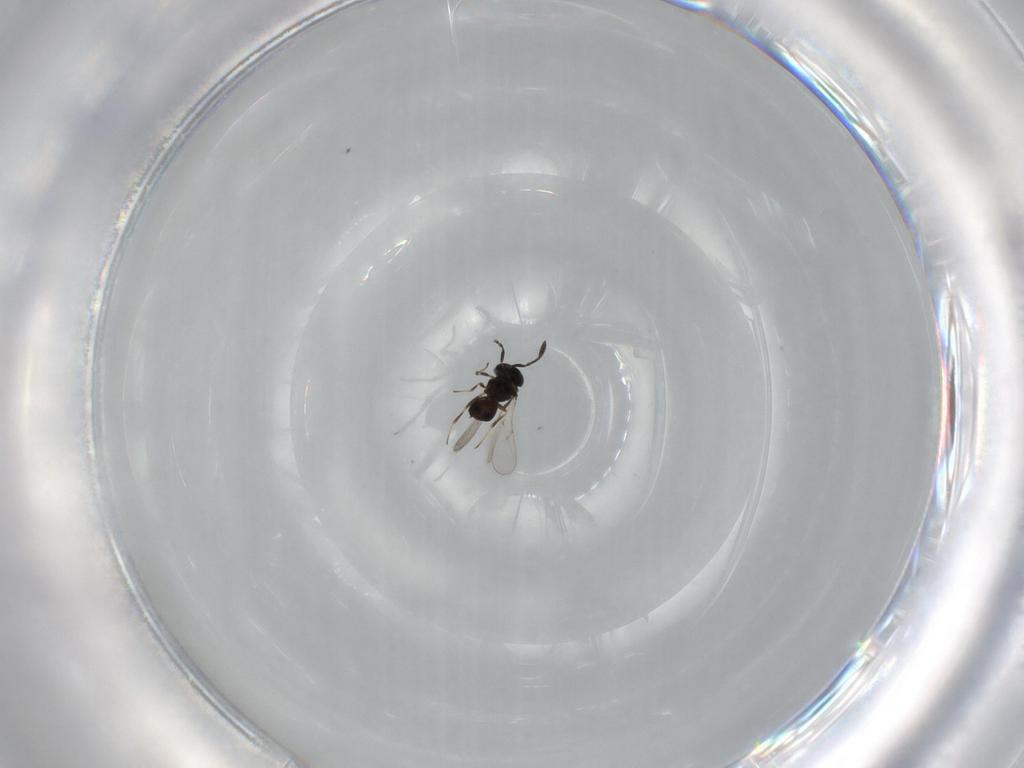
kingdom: Animalia
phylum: Arthropoda
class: Insecta
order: Hymenoptera
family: Scelionidae
